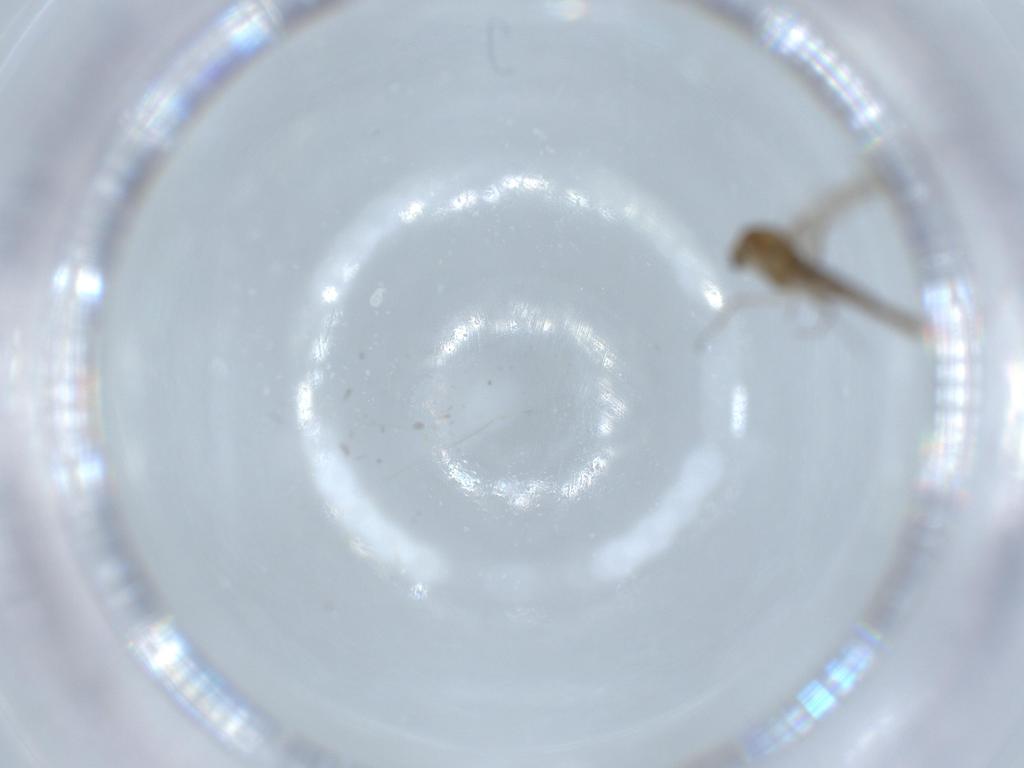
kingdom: Animalia
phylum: Arthropoda
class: Insecta
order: Diptera
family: Chironomidae
